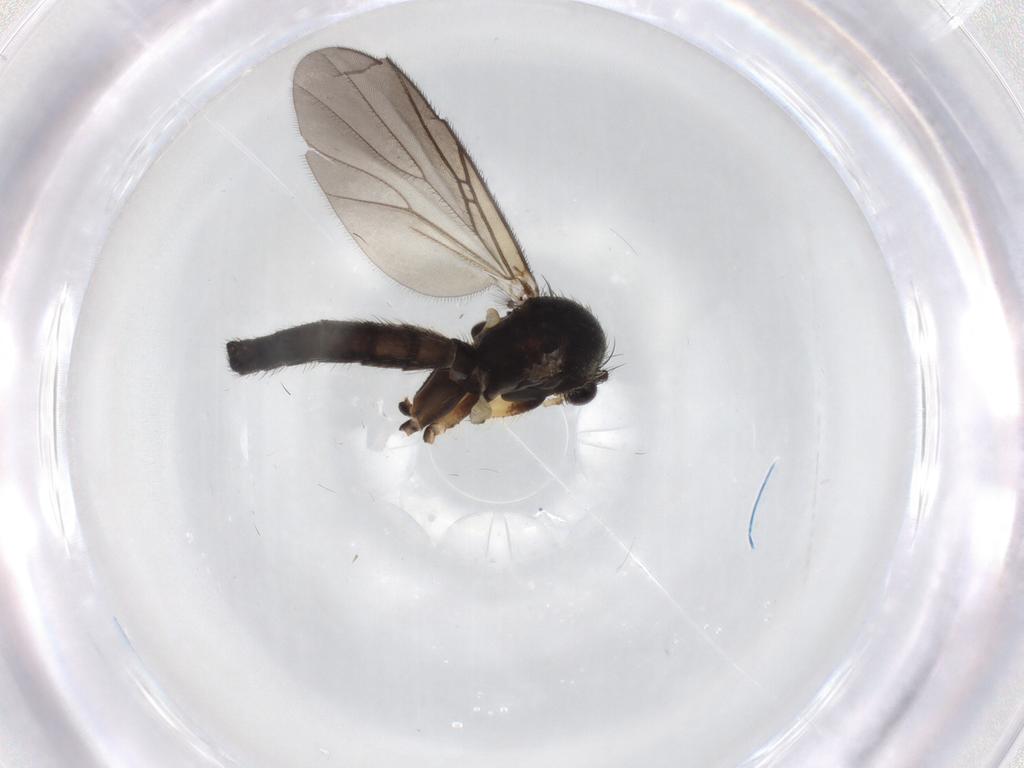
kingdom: Animalia
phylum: Arthropoda
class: Insecta
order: Diptera
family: Mycetophilidae
